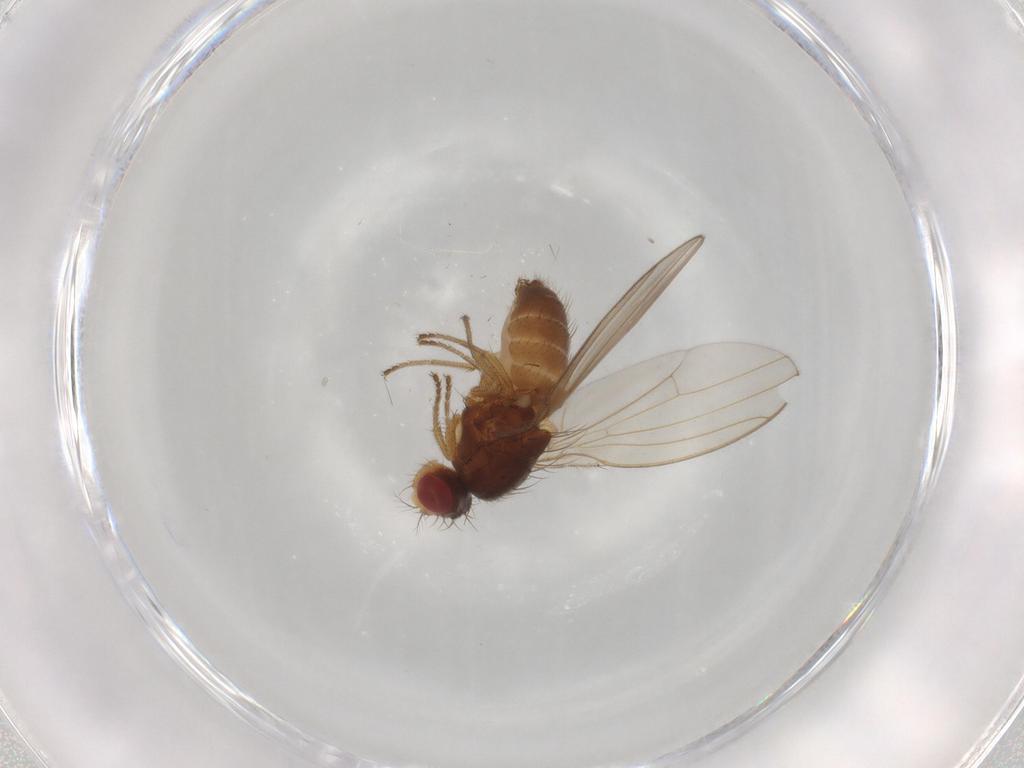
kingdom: Animalia
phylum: Arthropoda
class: Insecta
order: Diptera
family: Drosophilidae
